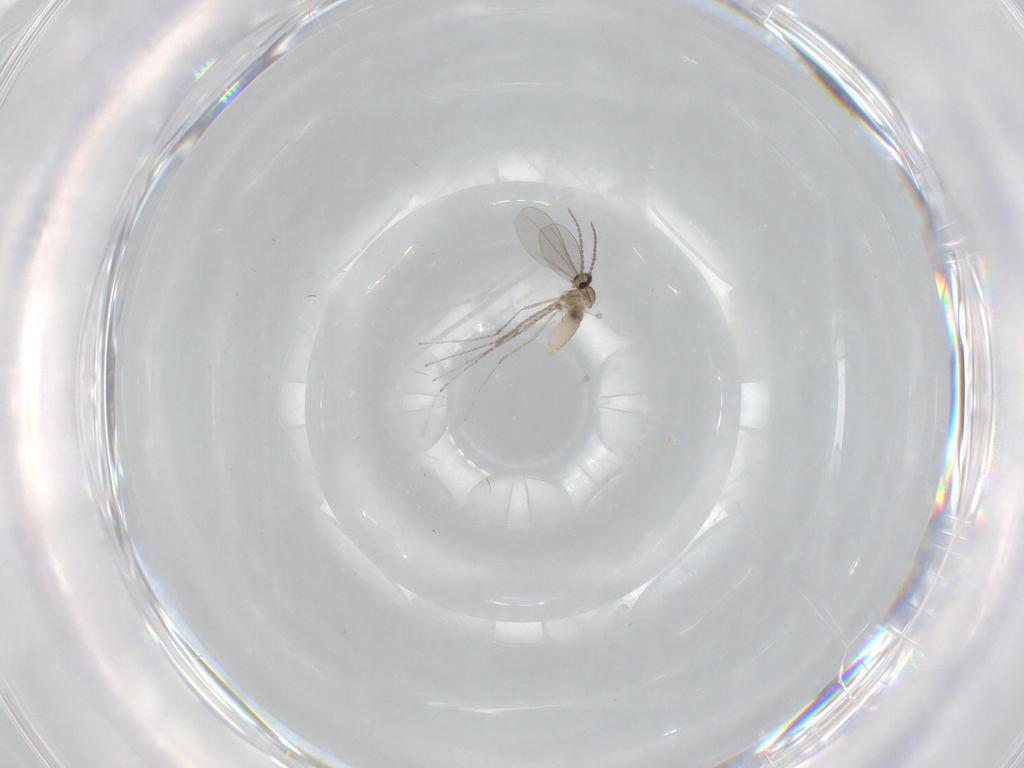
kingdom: Animalia
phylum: Arthropoda
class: Insecta
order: Diptera
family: Cecidomyiidae
